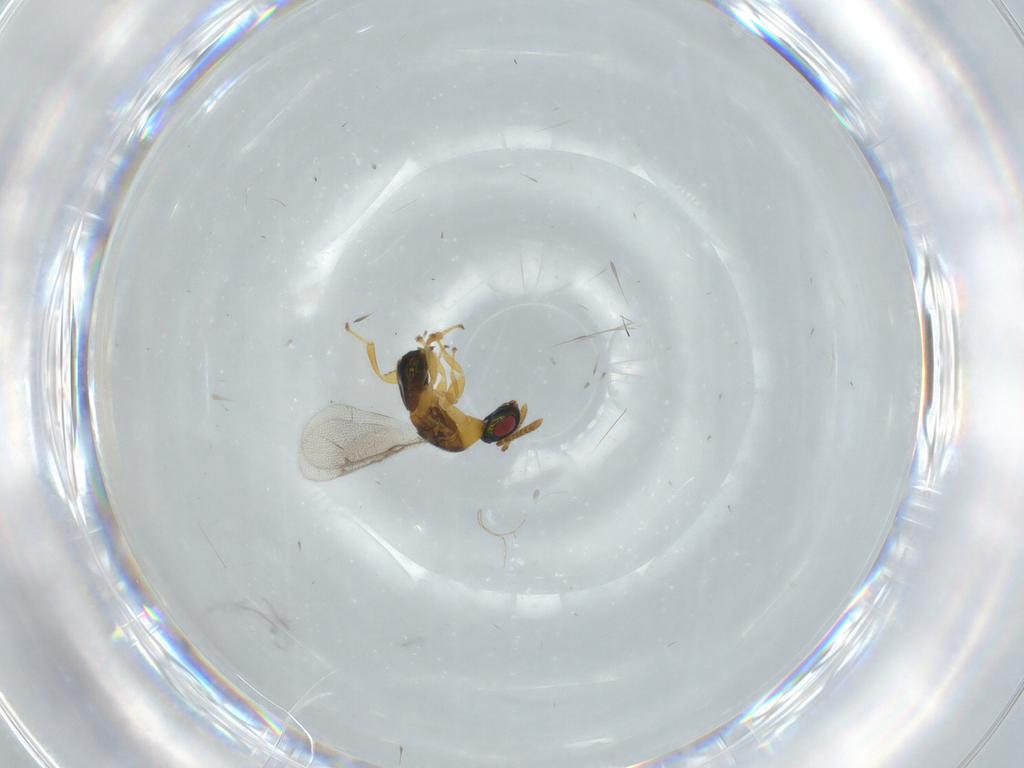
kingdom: Animalia
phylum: Arthropoda
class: Insecta
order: Hymenoptera
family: Torymidae
